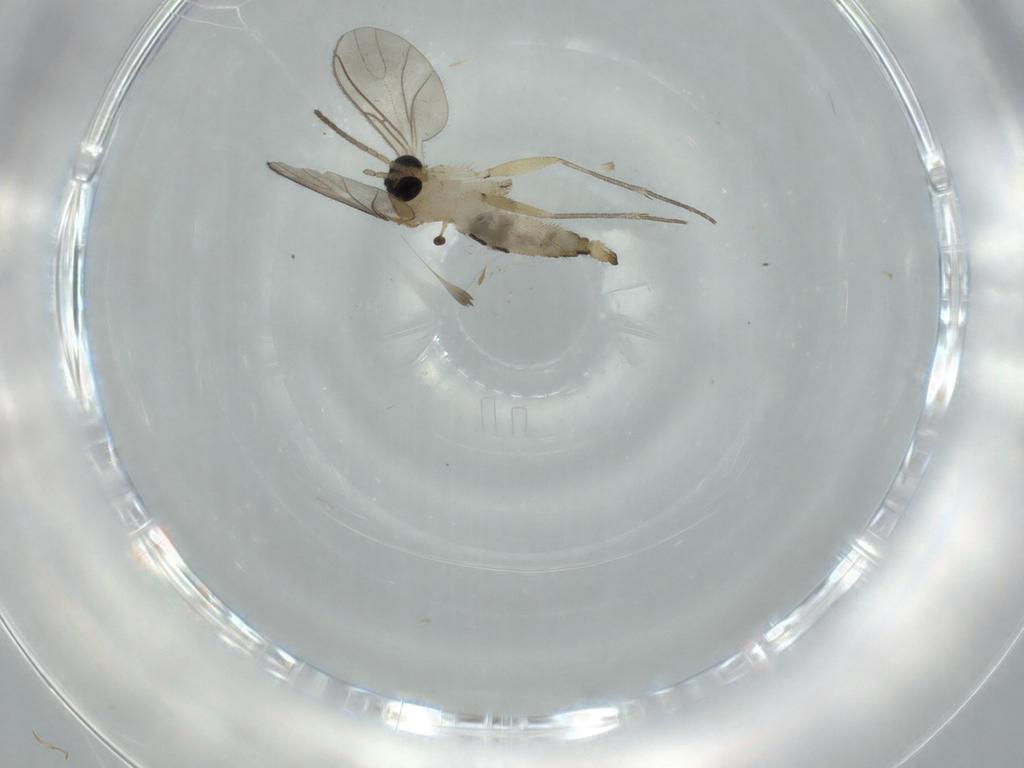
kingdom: Animalia
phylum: Arthropoda
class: Insecta
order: Diptera
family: Sciaridae
